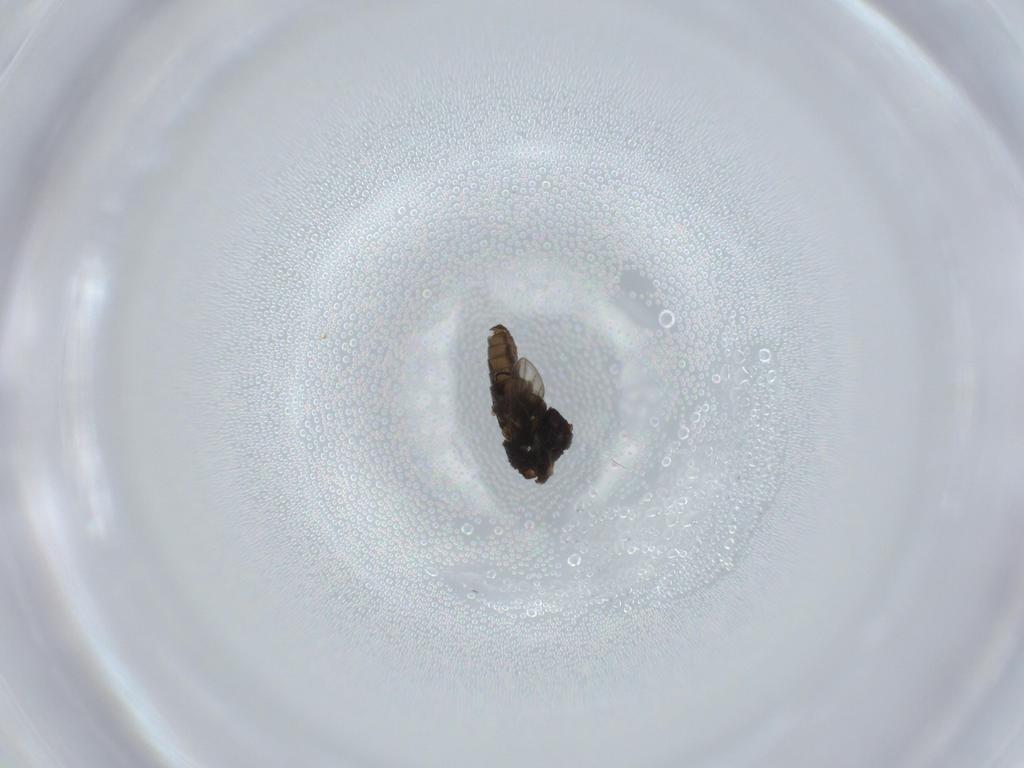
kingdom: Animalia
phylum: Arthropoda
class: Insecta
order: Diptera
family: Psychodidae
